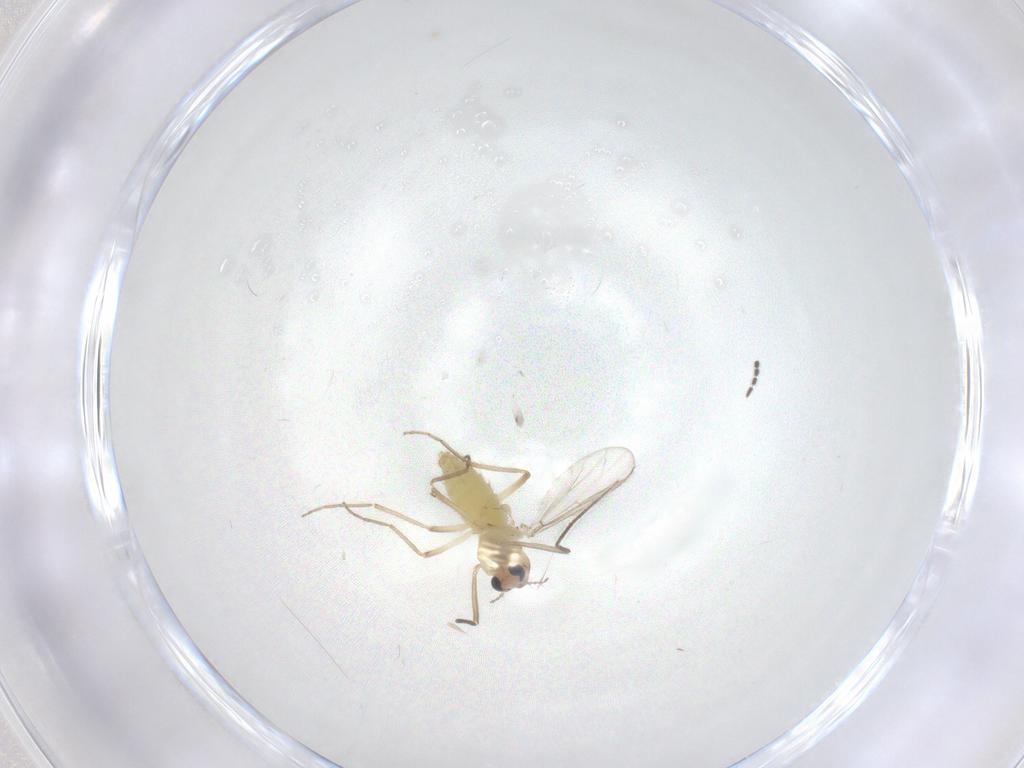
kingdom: Animalia
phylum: Arthropoda
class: Insecta
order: Diptera
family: Chironomidae
